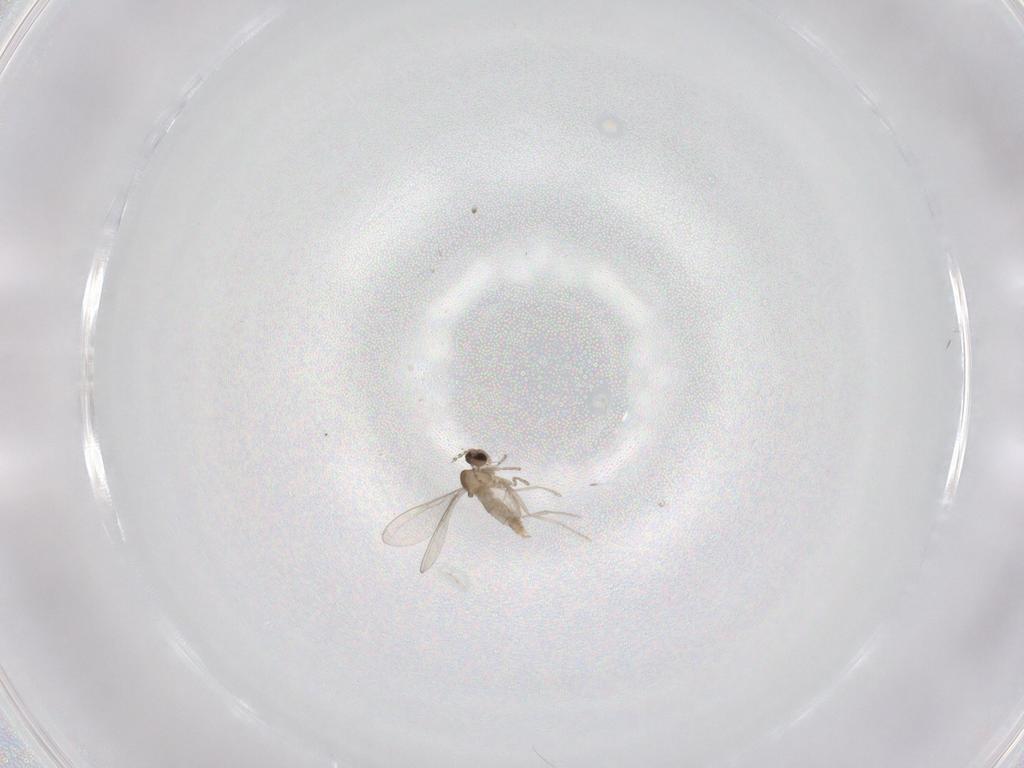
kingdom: Animalia
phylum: Arthropoda
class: Insecta
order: Diptera
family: Cecidomyiidae
